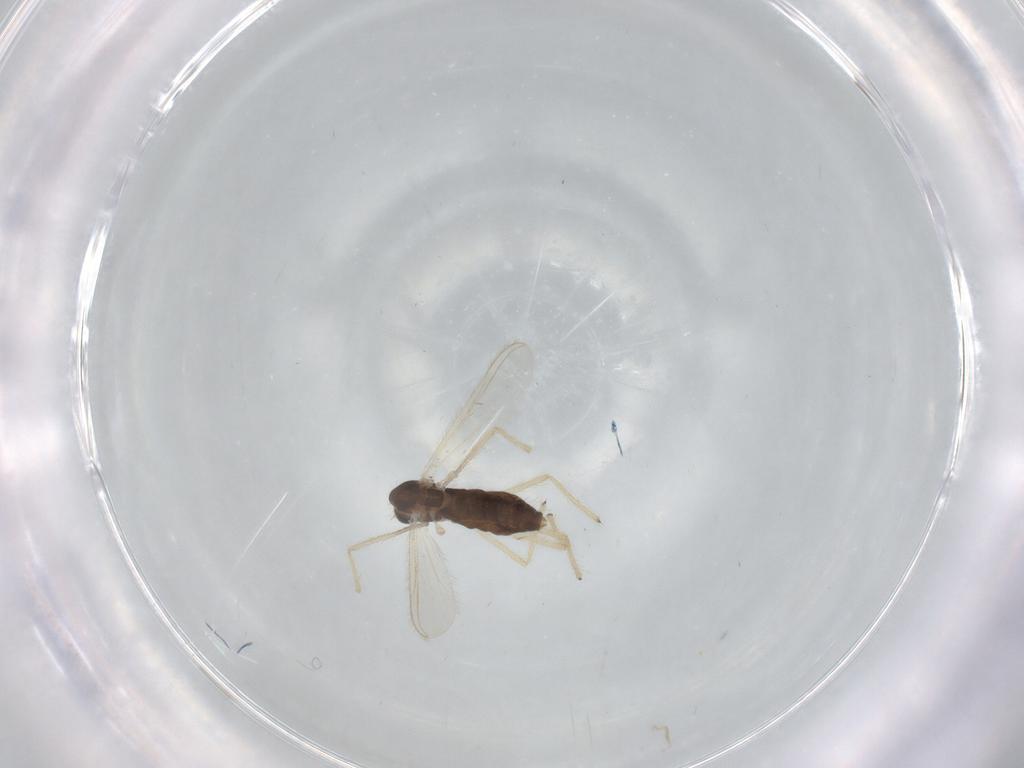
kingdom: Animalia
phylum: Arthropoda
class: Insecta
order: Diptera
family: Chironomidae
